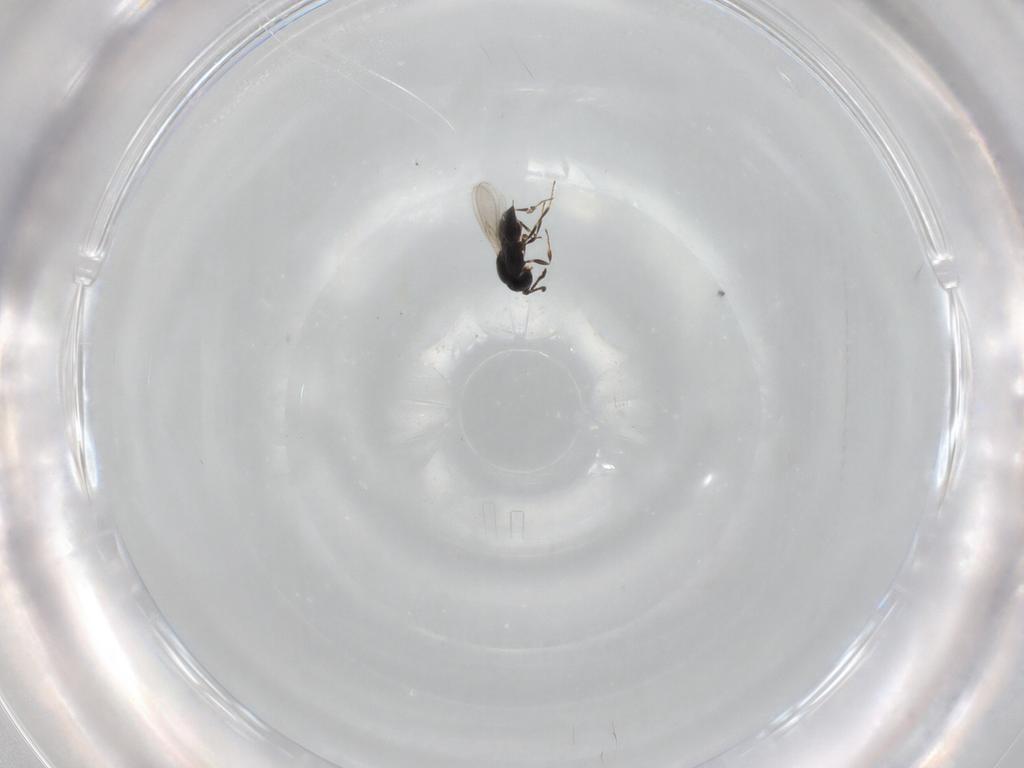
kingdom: Animalia
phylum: Arthropoda
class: Insecta
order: Hymenoptera
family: Scelionidae
